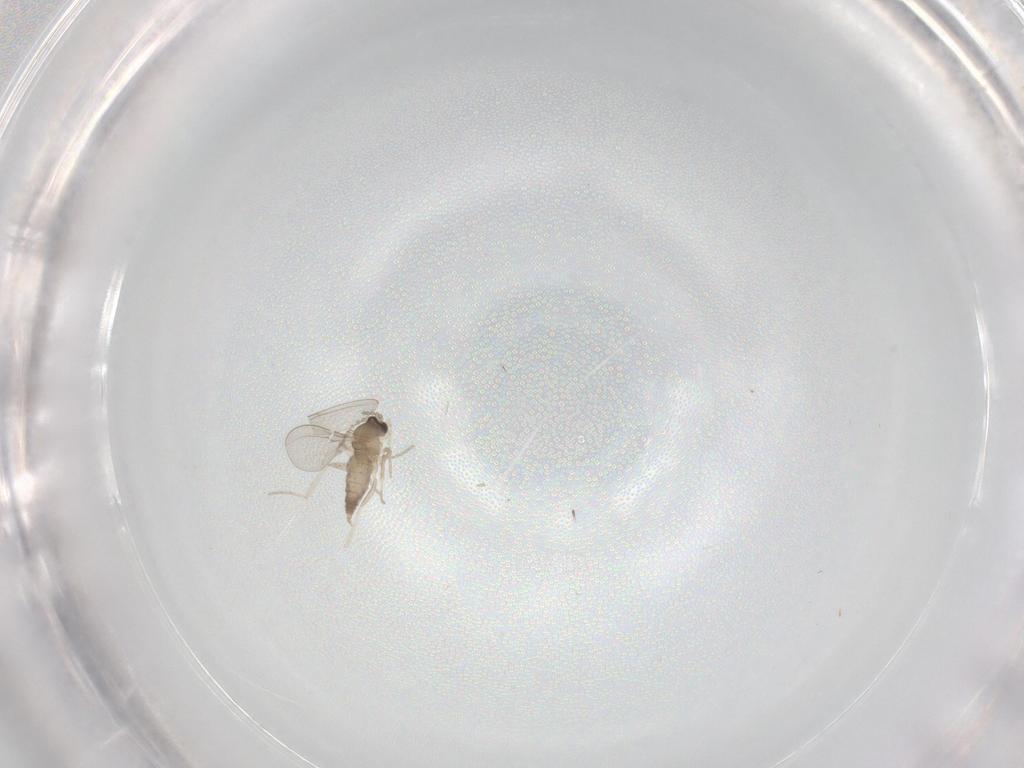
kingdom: Animalia
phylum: Arthropoda
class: Insecta
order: Diptera
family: Cecidomyiidae
